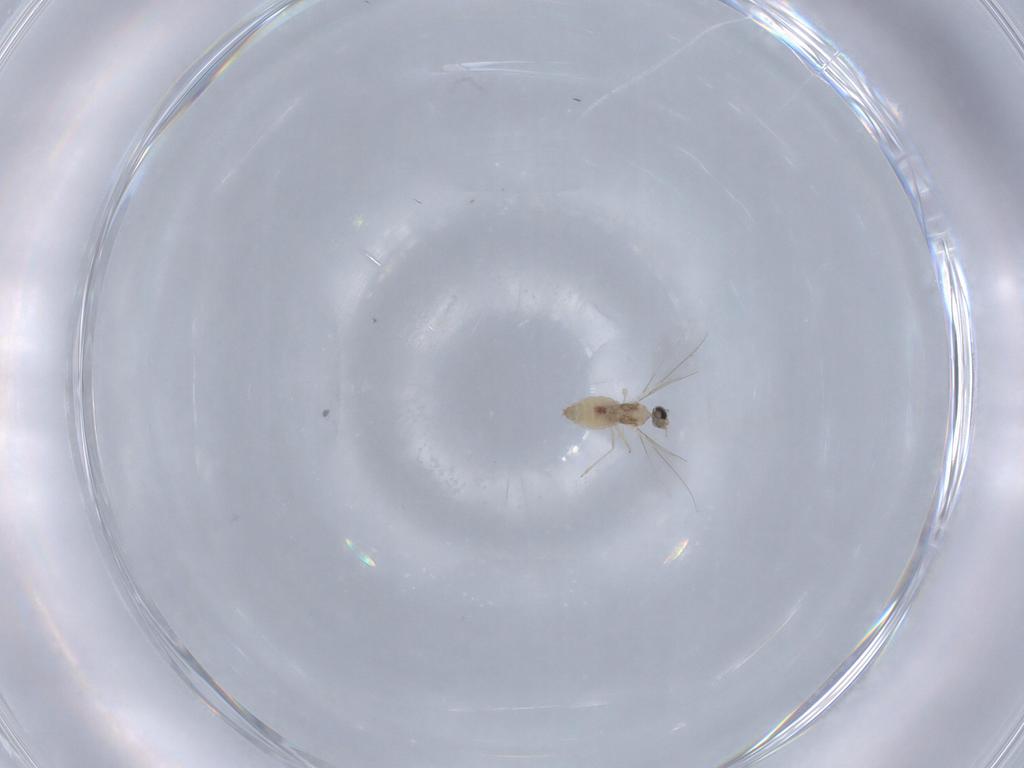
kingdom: Animalia
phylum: Arthropoda
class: Insecta
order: Diptera
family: Cecidomyiidae
